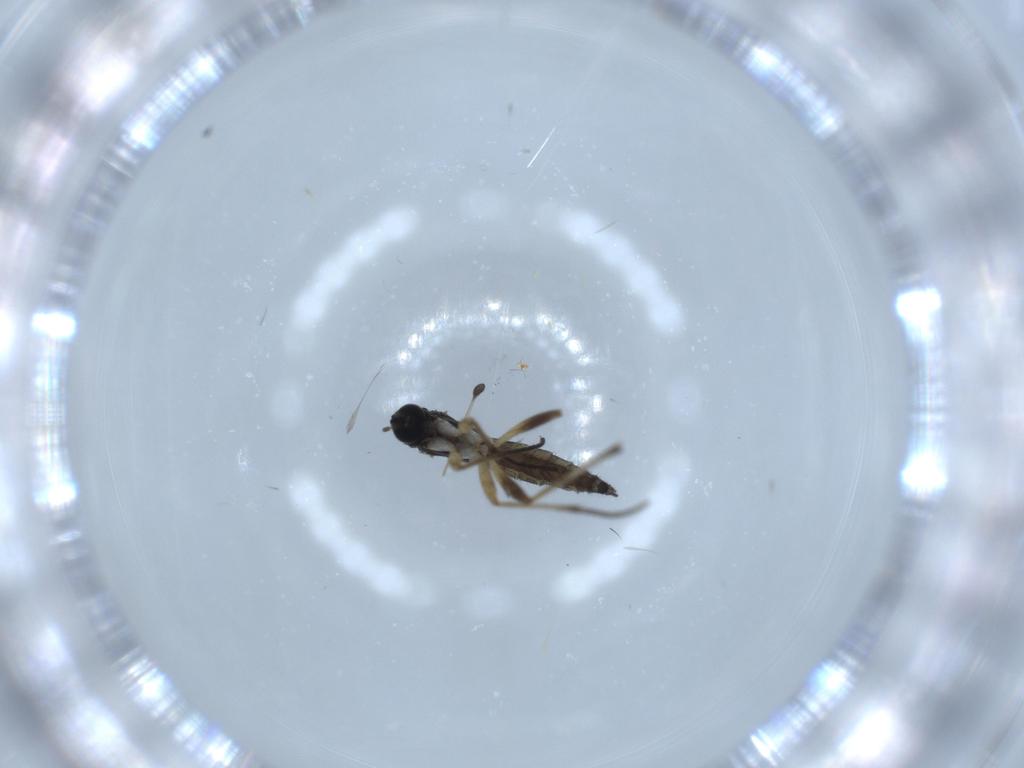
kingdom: Animalia
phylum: Arthropoda
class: Insecta
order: Diptera
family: Sciaridae
